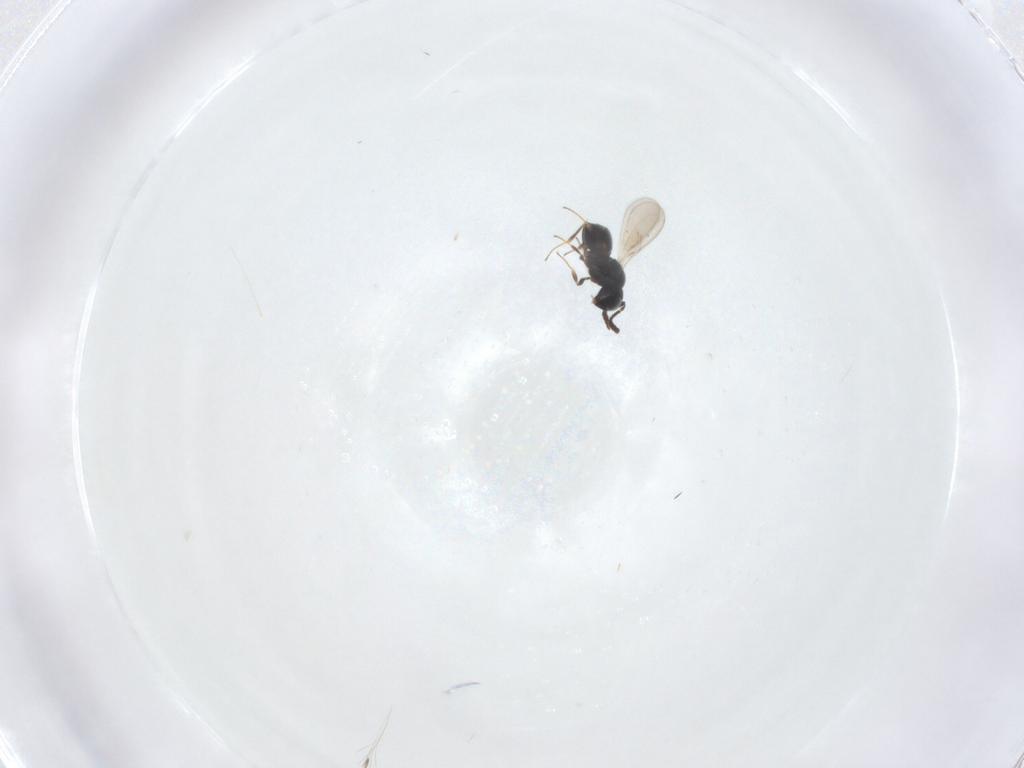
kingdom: Animalia
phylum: Arthropoda
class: Insecta
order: Hymenoptera
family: Scelionidae
